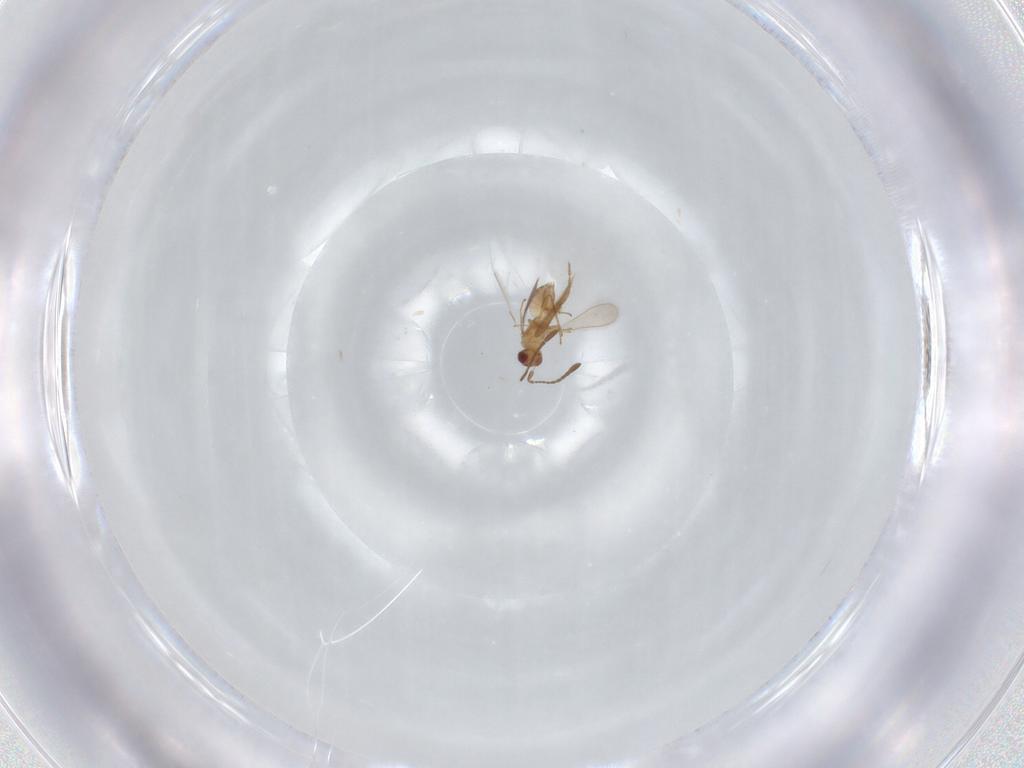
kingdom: Animalia
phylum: Arthropoda
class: Insecta
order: Hymenoptera
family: Mymaridae
